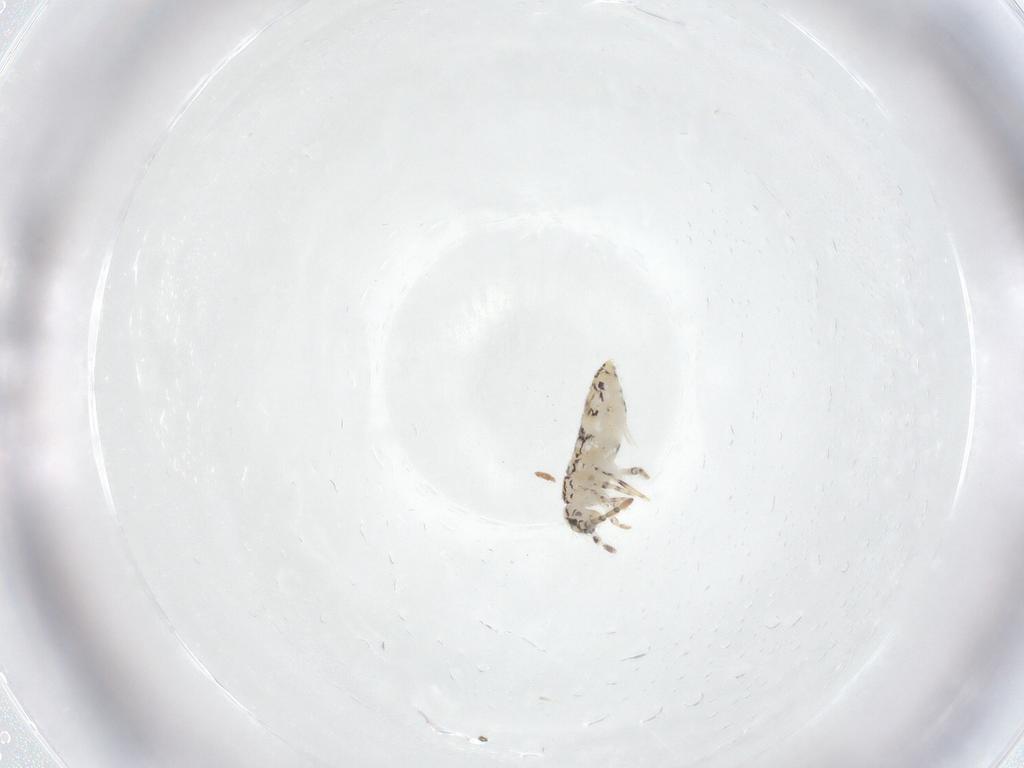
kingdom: Animalia
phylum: Arthropoda
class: Collembola
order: Entomobryomorpha
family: Entomobryidae
